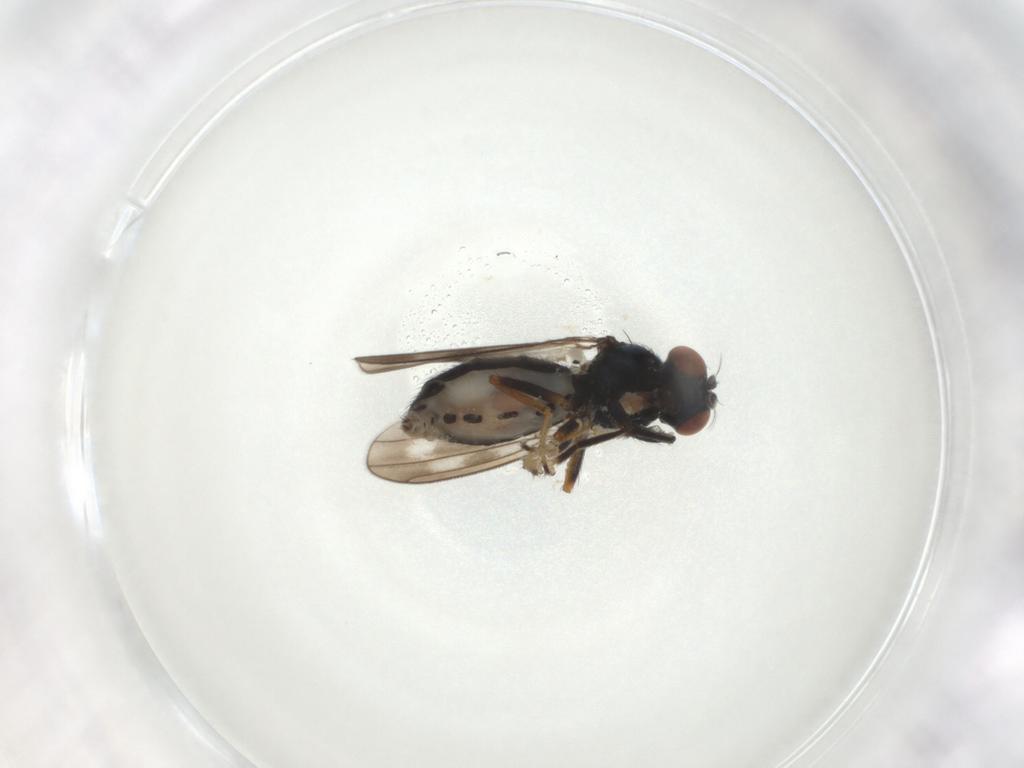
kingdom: Animalia
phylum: Arthropoda
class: Insecta
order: Diptera
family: Ephydridae
